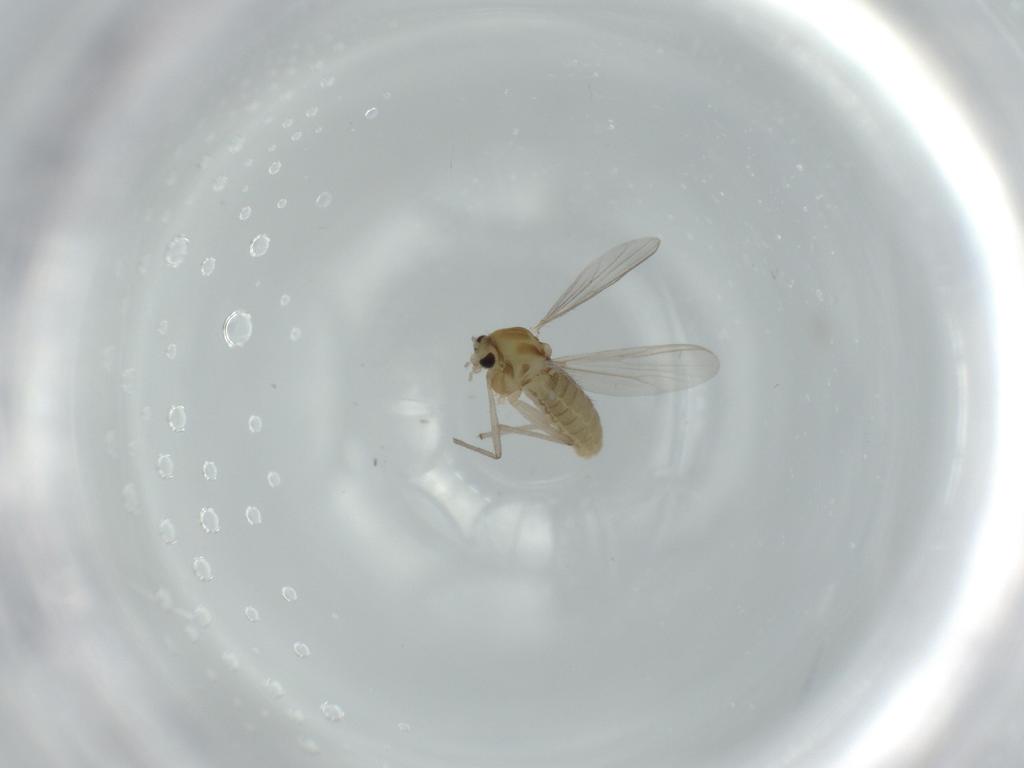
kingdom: Animalia
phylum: Arthropoda
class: Insecta
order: Diptera
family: Chironomidae
